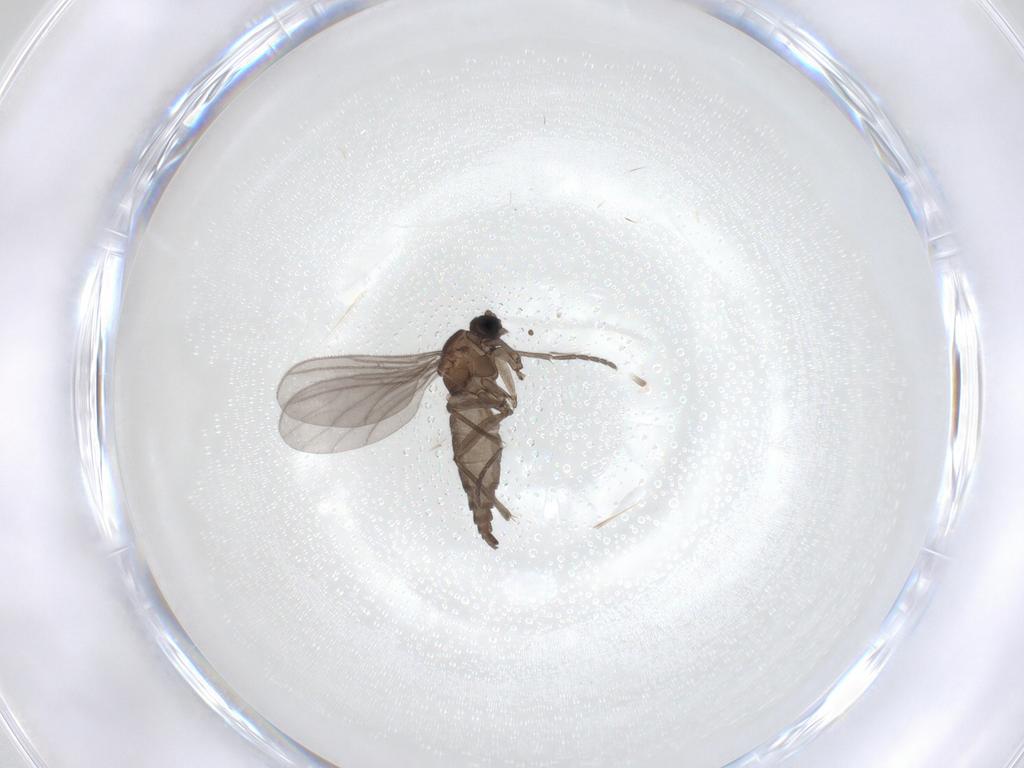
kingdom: Animalia
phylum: Arthropoda
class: Insecta
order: Diptera
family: Sciaridae
